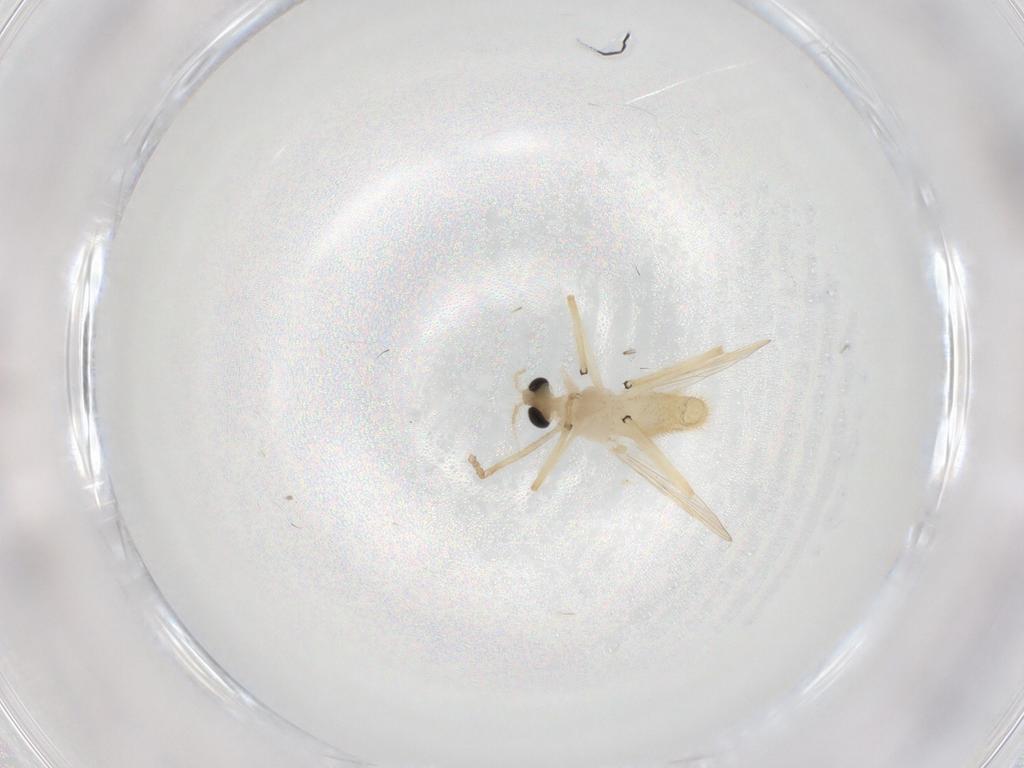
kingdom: Animalia
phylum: Arthropoda
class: Insecta
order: Diptera
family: Chironomidae
